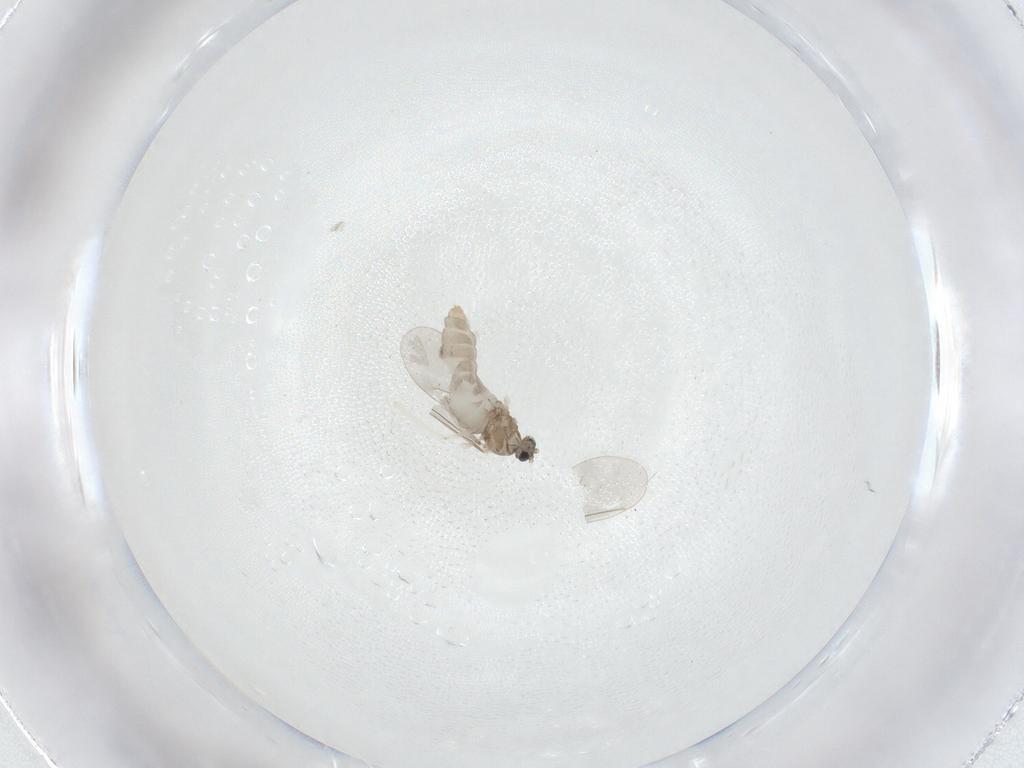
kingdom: Animalia
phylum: Arthropoda
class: Insecta
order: Diptera
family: Cecidomyiidae
